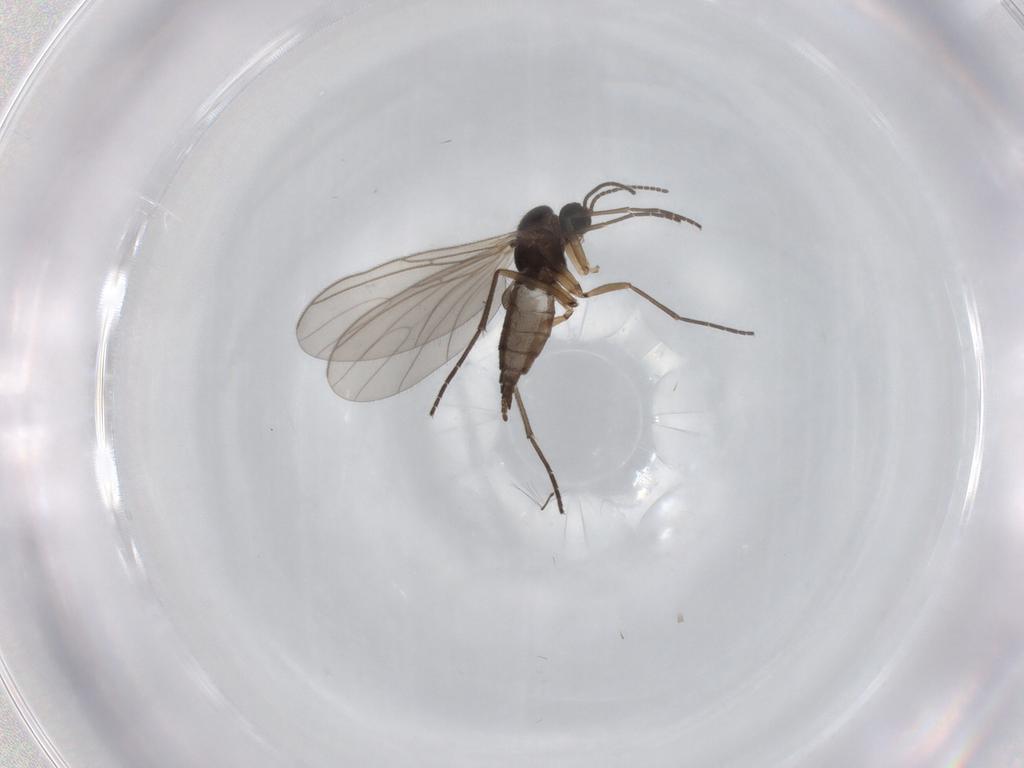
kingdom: Animalia
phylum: Arthropoda
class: Insecta
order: Diptera
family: Sciaridae
